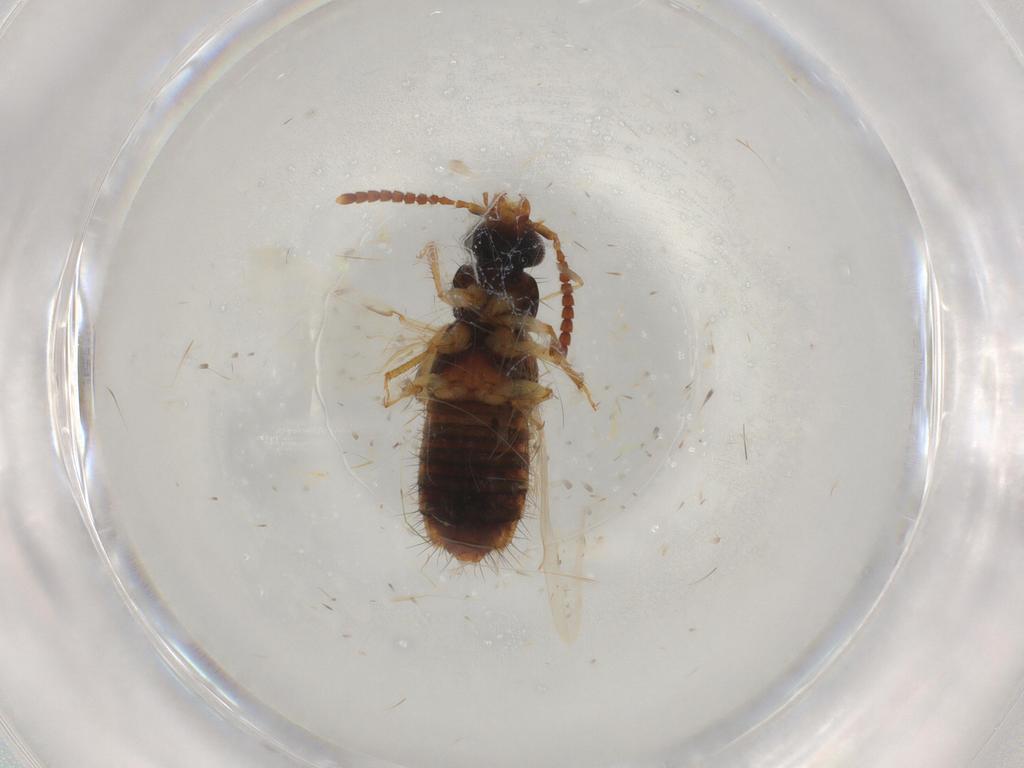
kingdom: Animalia
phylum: Arthropoda
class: Insecta
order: Coleoptera
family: Staphylinidae
